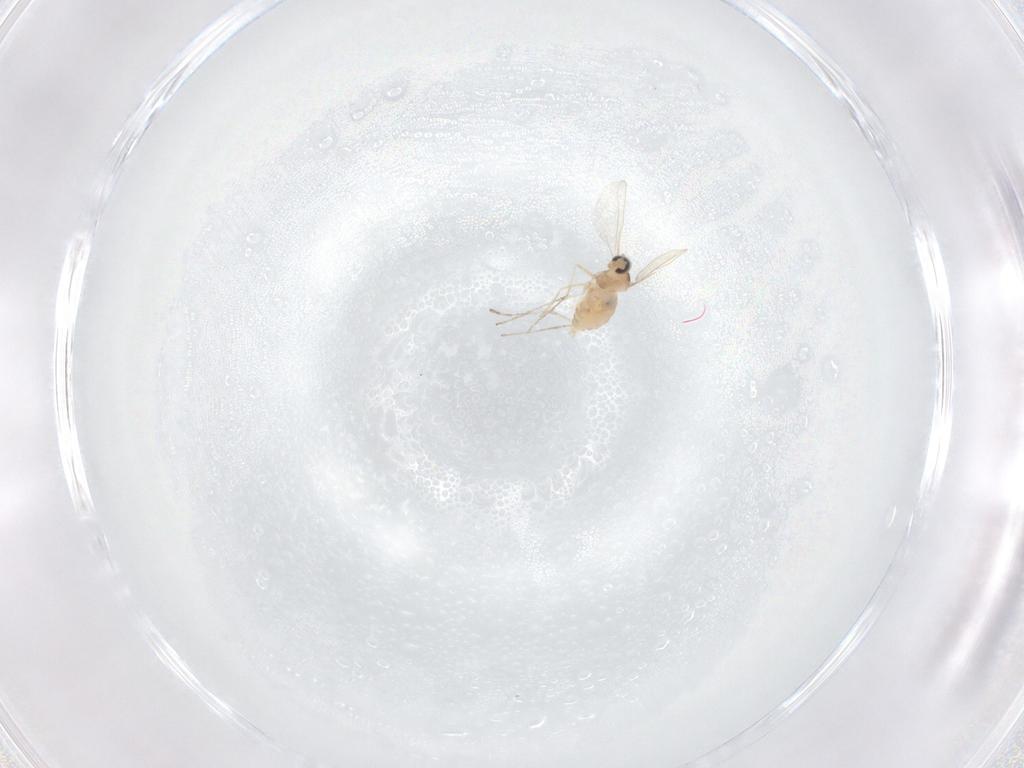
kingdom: Animalia
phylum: Arthropoda
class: Insecta
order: Diptera
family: Cecidomyiidae
